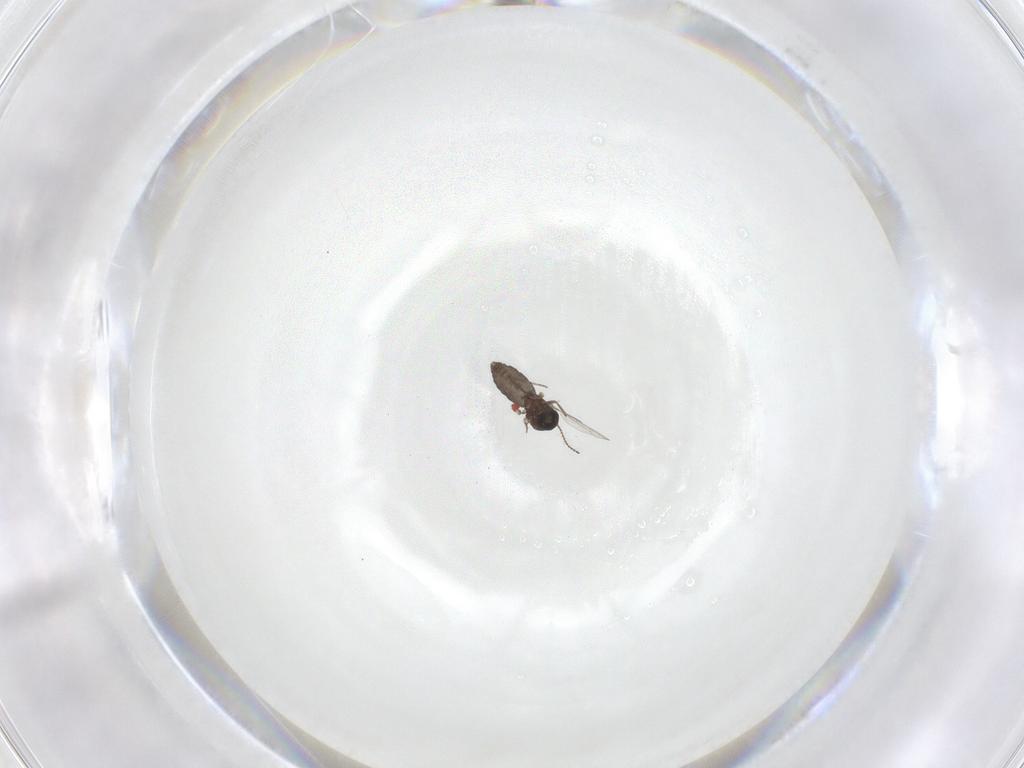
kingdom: Animalia
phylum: Arthropoda
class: Insecta
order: Diptera
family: Ceratopogonidae
